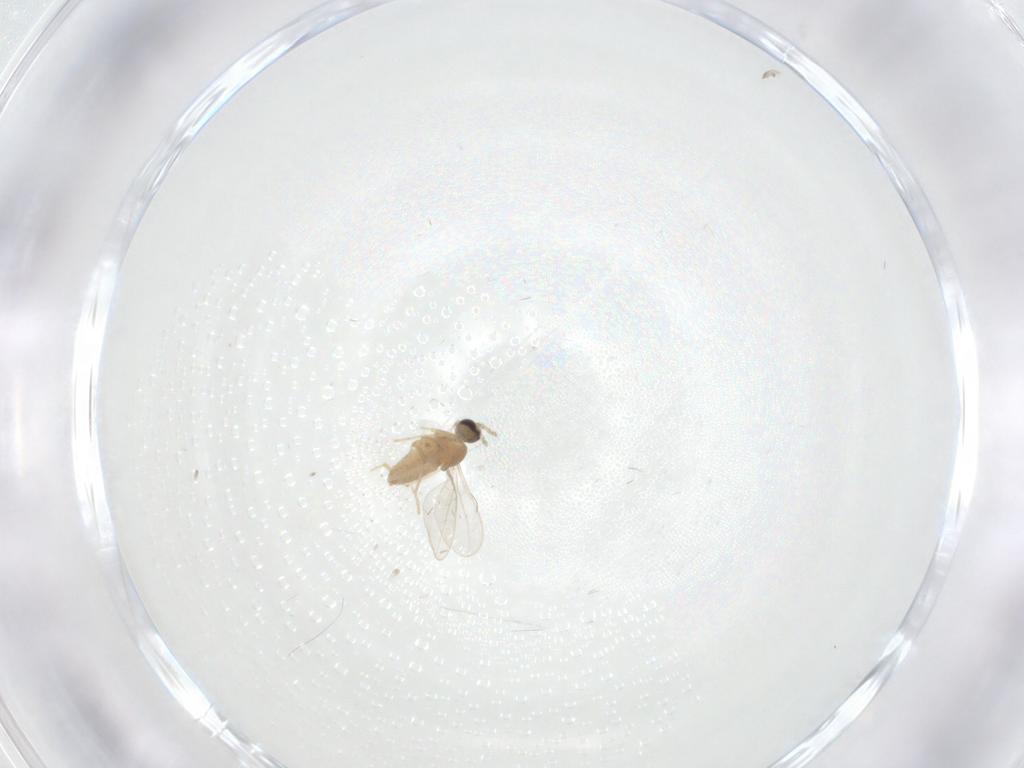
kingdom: Animalia
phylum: Arthropoda
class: Insecta
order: Diptera
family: Cecidomyiidae
